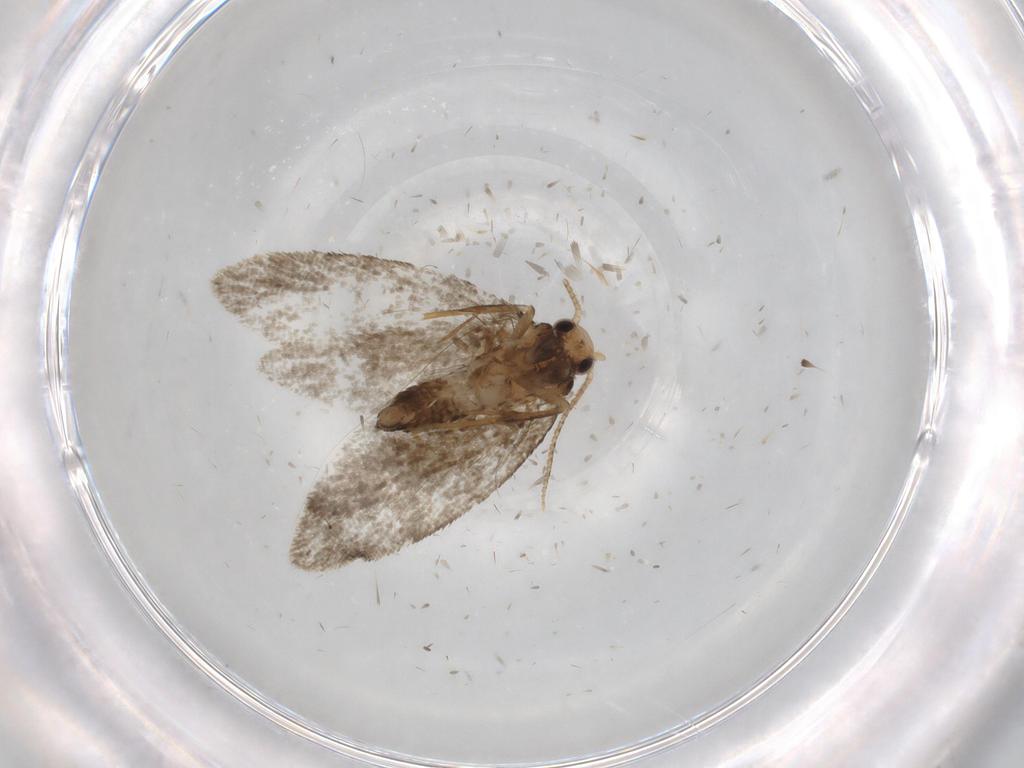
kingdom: Animalia
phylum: Arthropoda
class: Insecta
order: Lepidoptera
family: Psychidae
